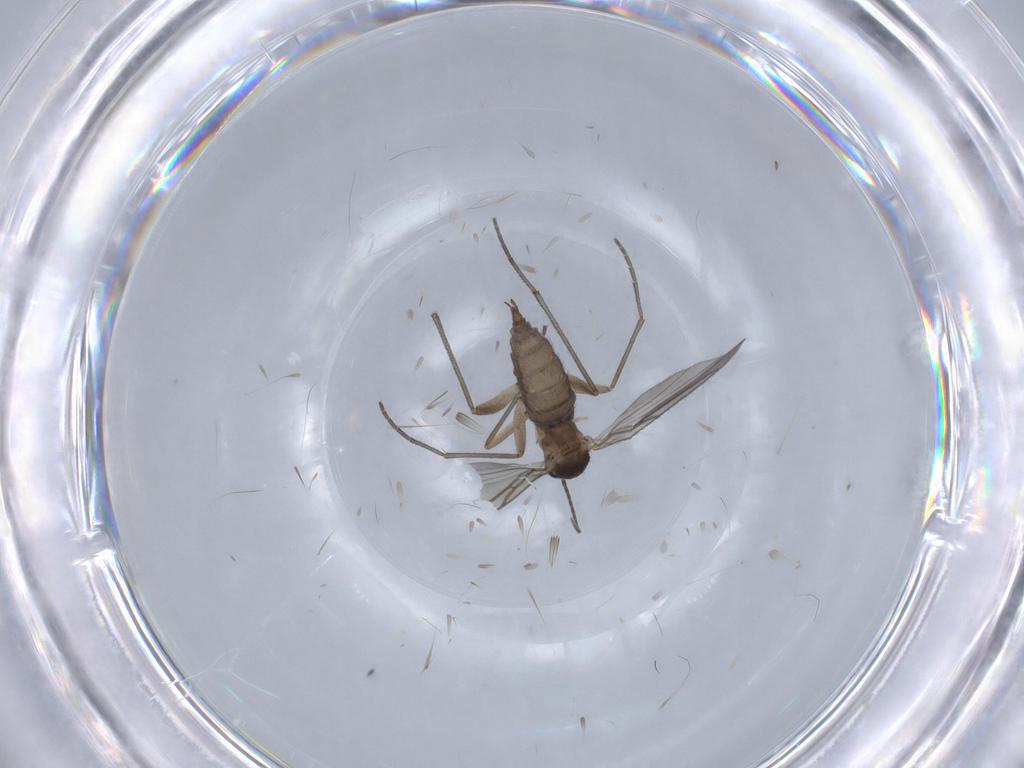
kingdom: Animalia
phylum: Arthropoda
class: Insecta
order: Diptera
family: Sciaridae
